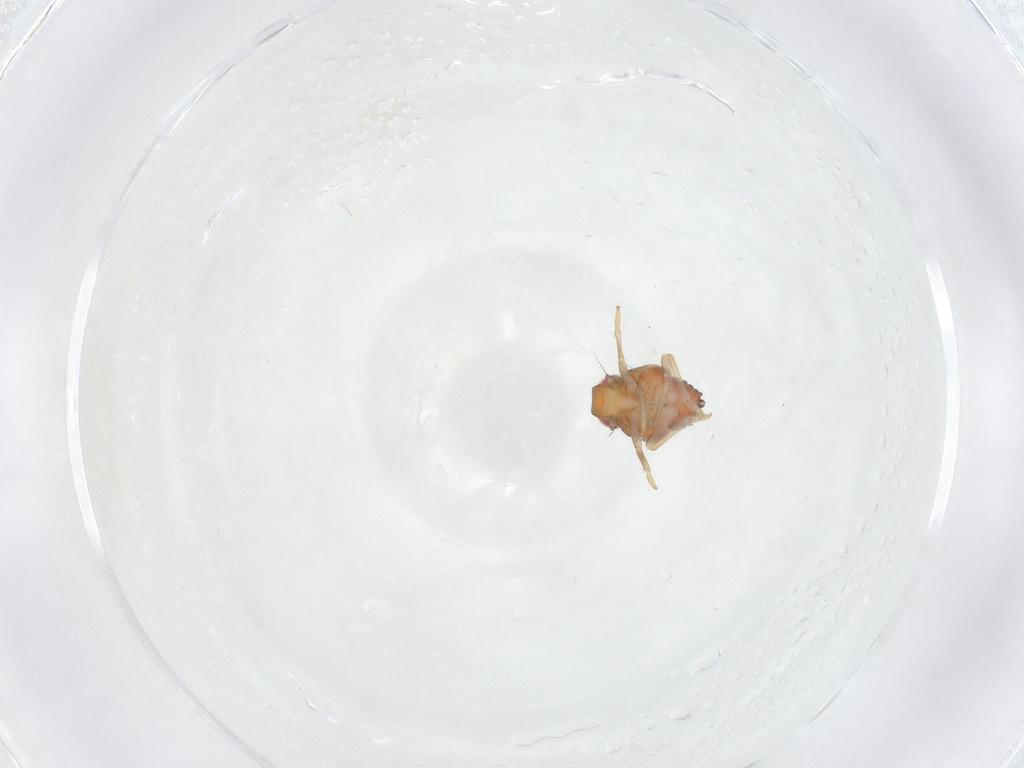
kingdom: Animalia
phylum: Arthropoda
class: Insecta
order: Hemiptera
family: Issidae
